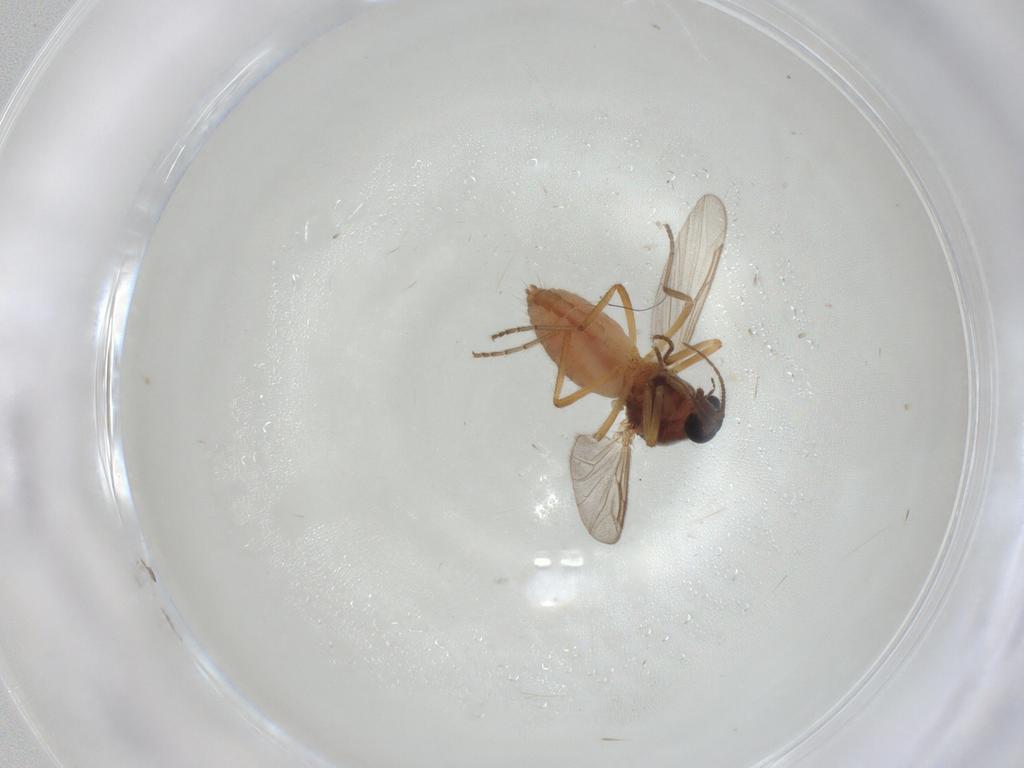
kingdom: Animalia
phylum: Arthropoda
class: Insecta
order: Diptera
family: Ceratopogonidae
